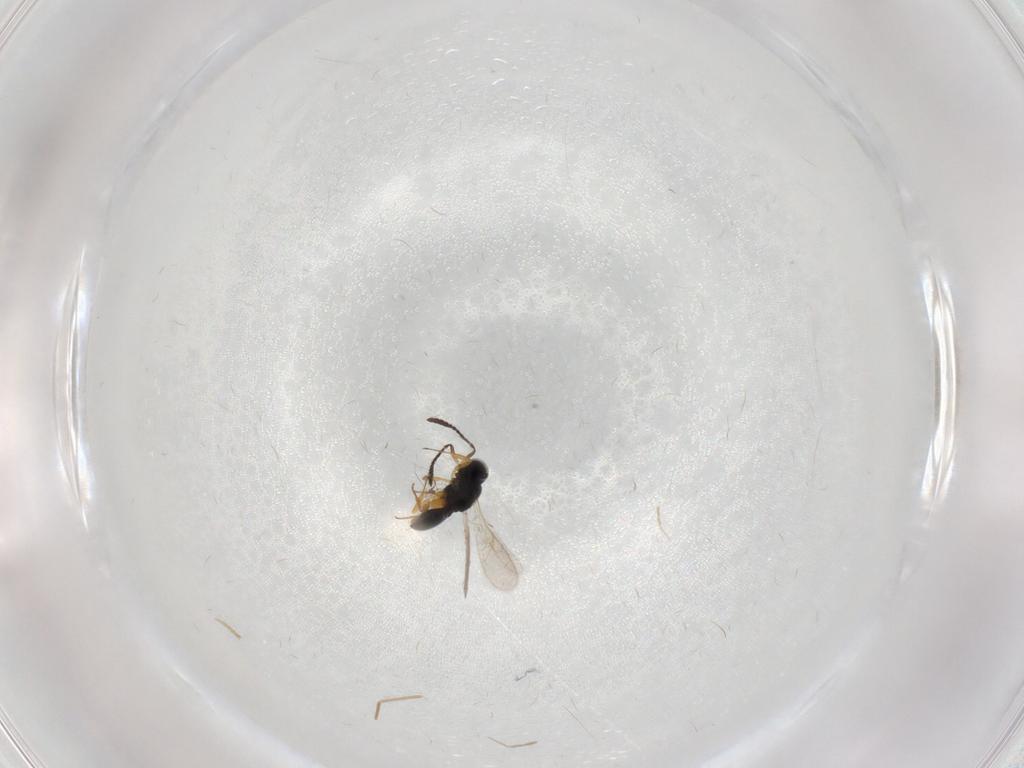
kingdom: Animalia
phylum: Arthropoda
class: Insecta
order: Hymenoptera
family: Scelionidae
